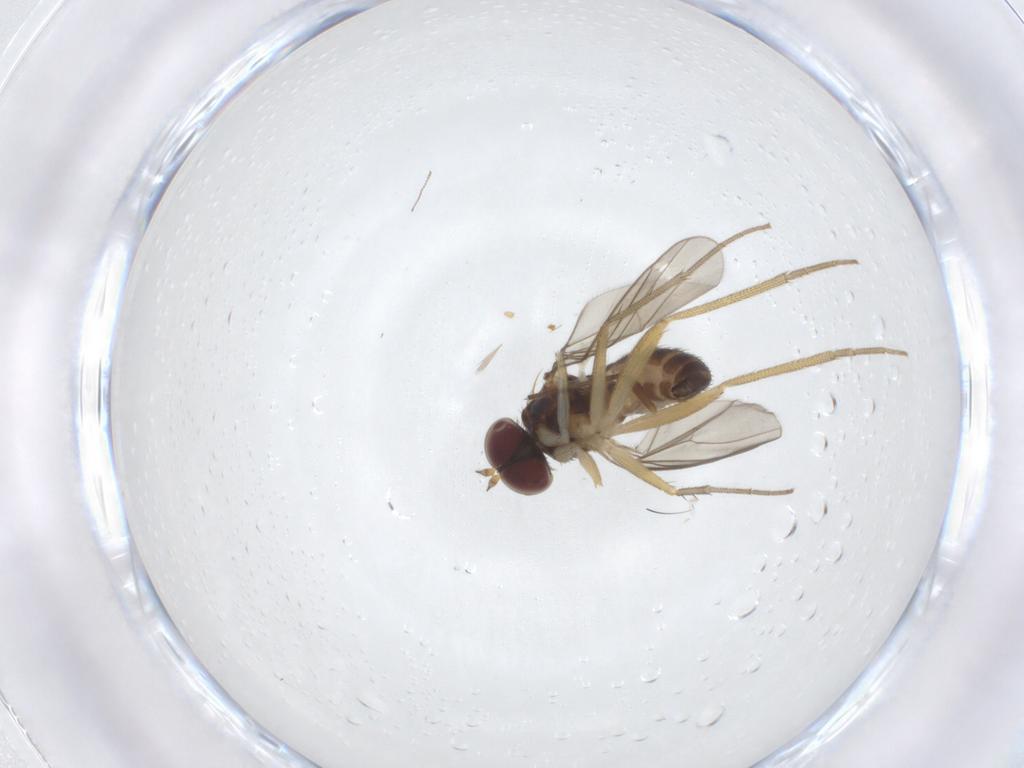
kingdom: Animalia
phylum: Arthropoda
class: Insecta
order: Diptera
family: Dolichopodidae
